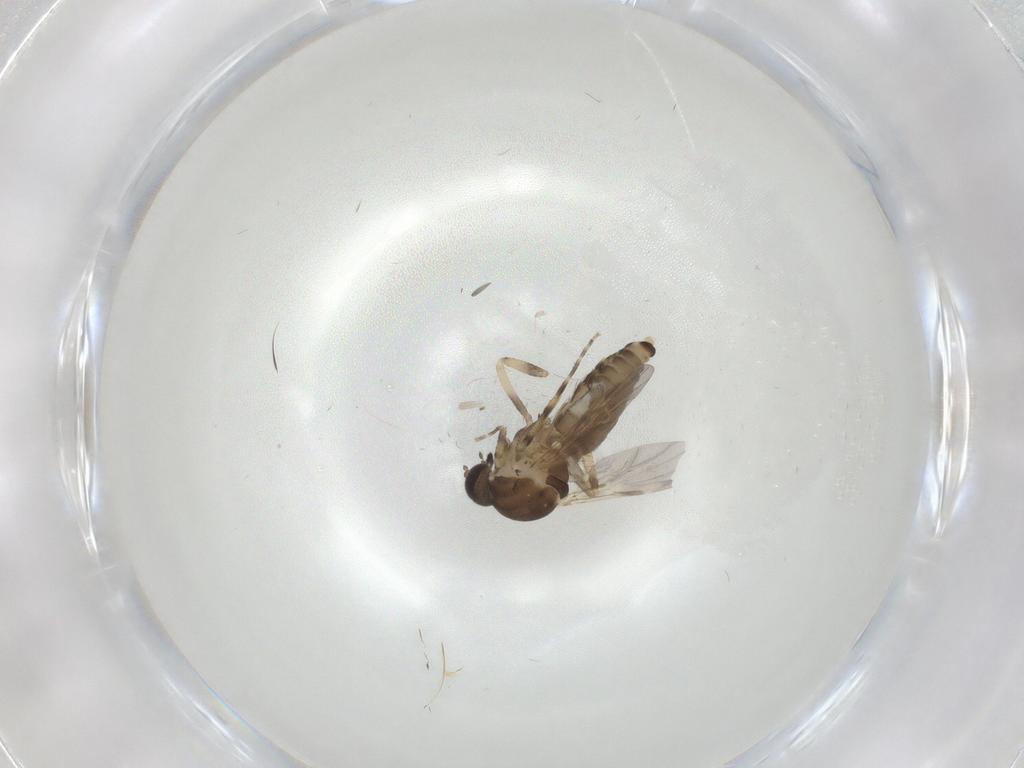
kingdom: Animalia
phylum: Arthropoda
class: Insecta
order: Diptera
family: Ceratopogonidae
